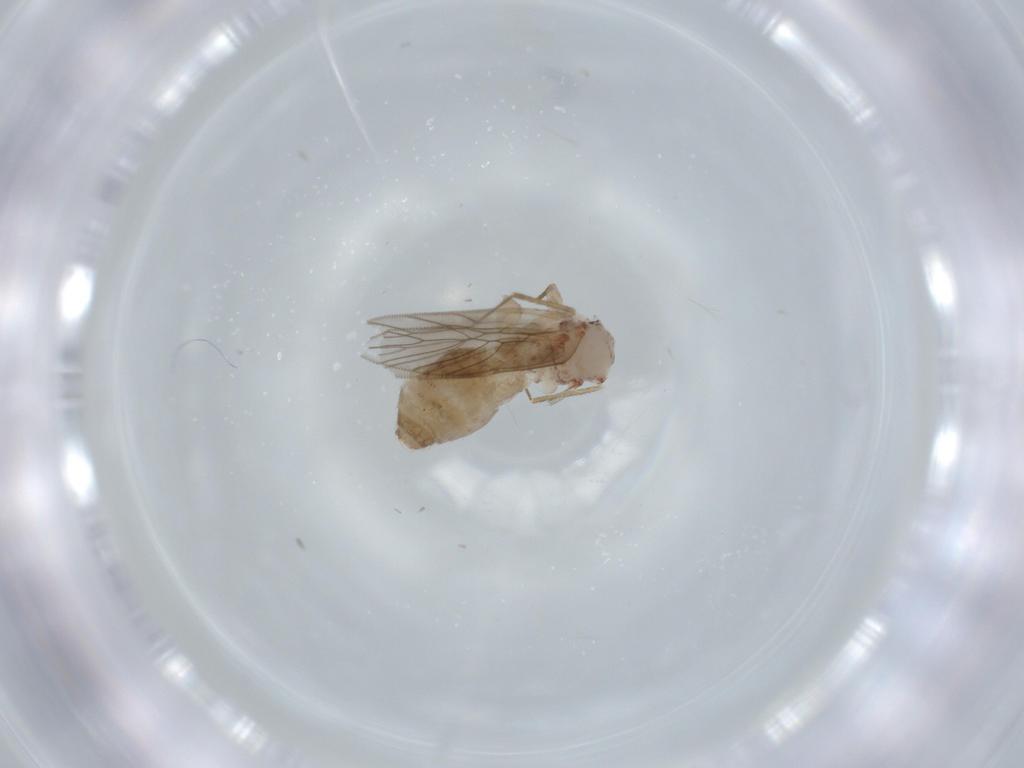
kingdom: Animalia
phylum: Arthropoda
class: Insecta
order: Psocodea
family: Lepidopsocidae
